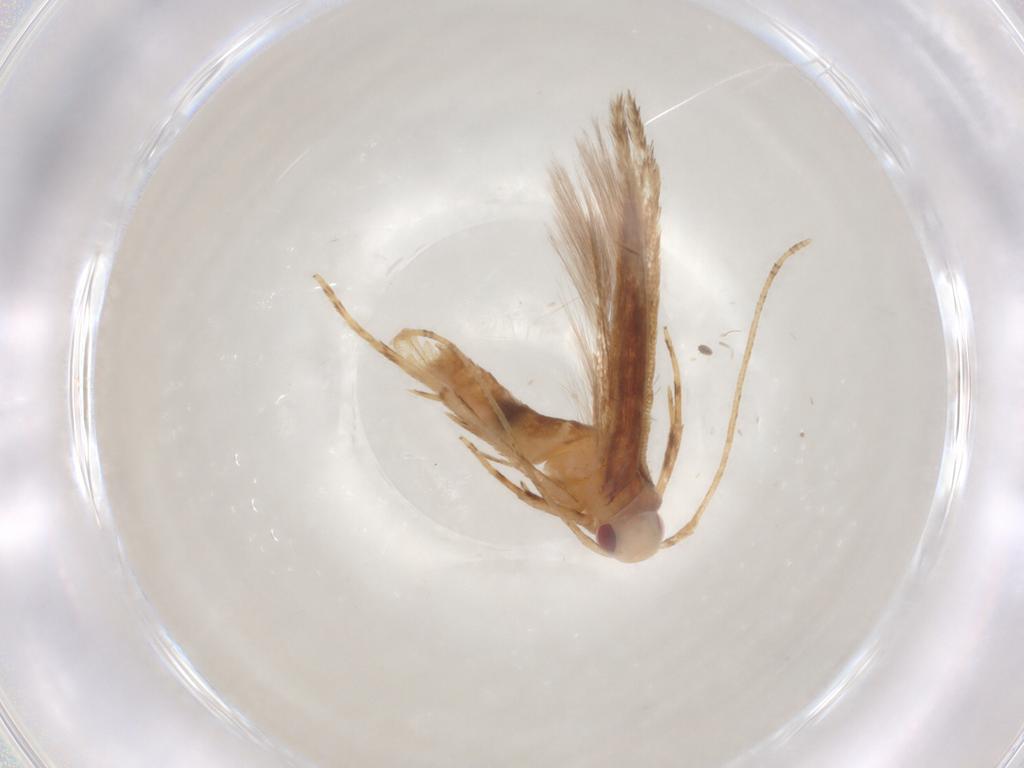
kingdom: Animalia
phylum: Arthropoda
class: Insecta
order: Lepidoptera
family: Cosmopterigidae
